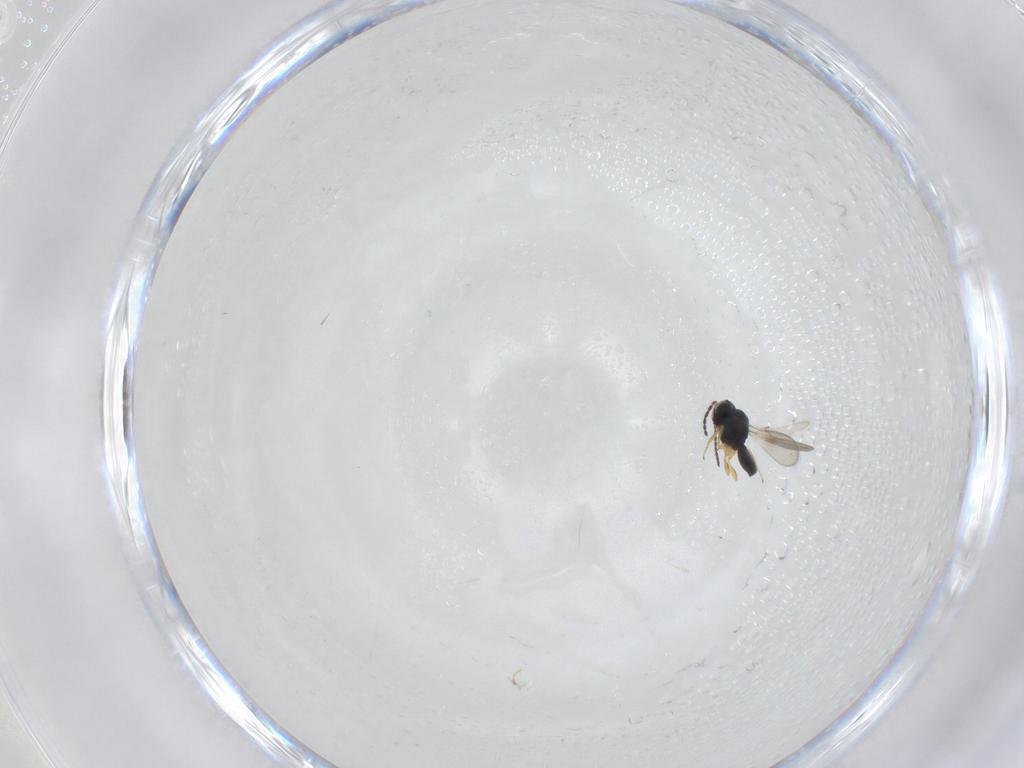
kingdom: Animalia
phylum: Arthropoda
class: Insecta
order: Hymenoptera
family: Scelionidae
